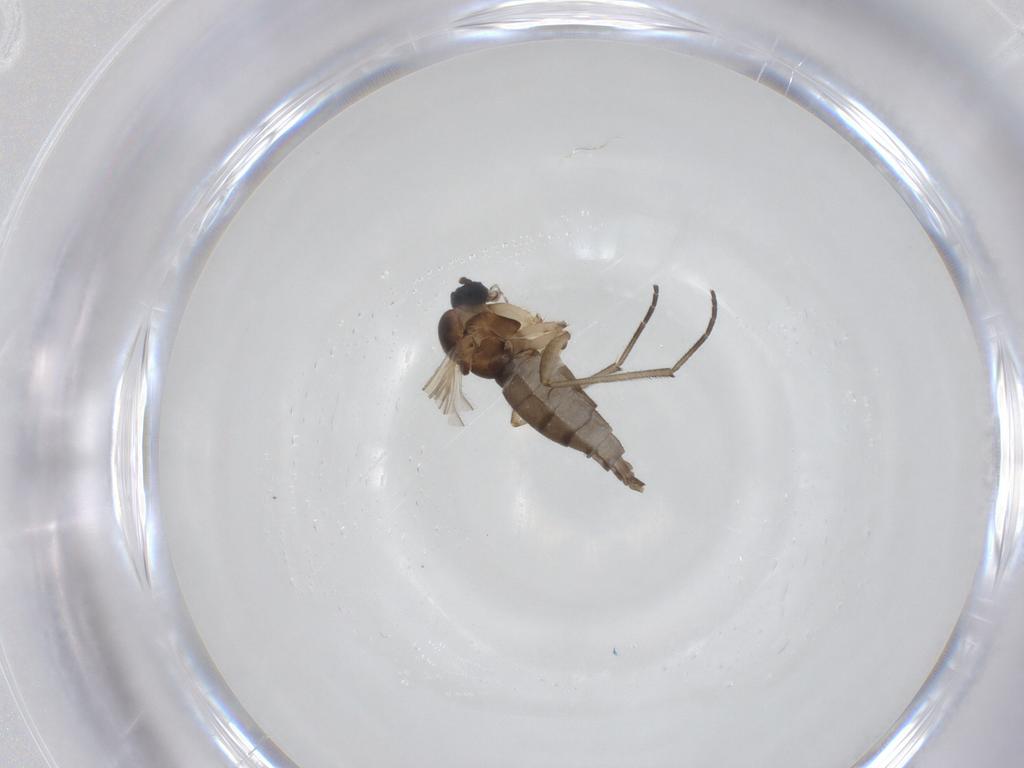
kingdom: Animalia
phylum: Arthropoda
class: Insecta
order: Diptera
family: Sciaridae
